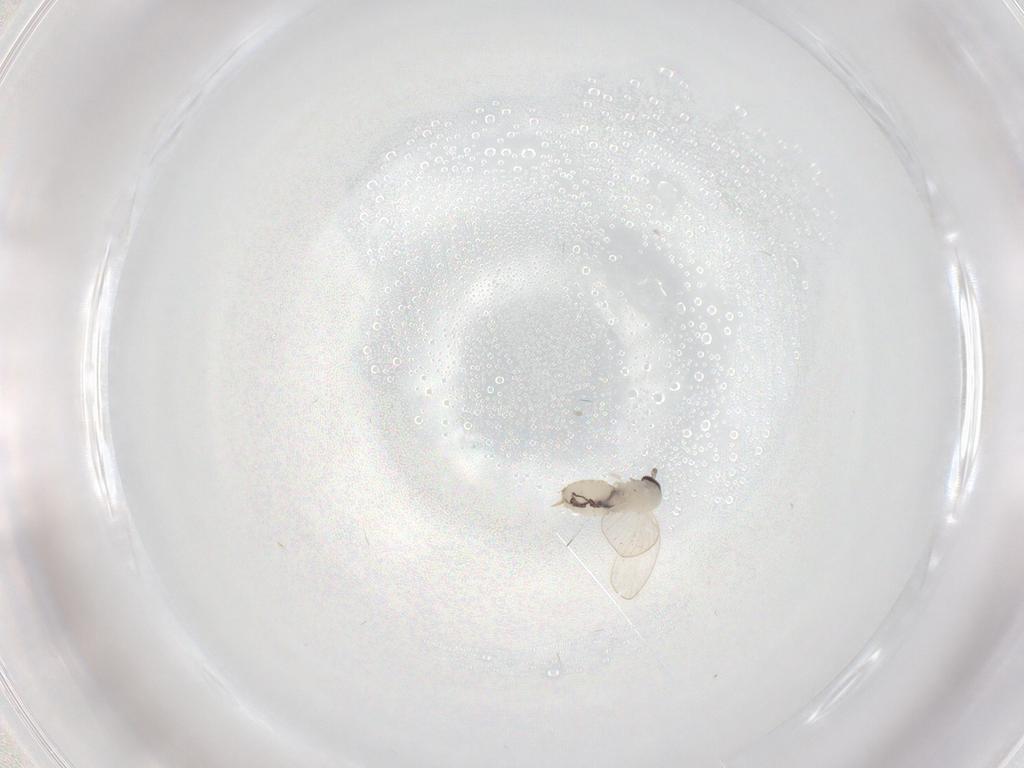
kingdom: Animalia
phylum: Arthropoda
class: Insecta
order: Diptera
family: Psychodidae
